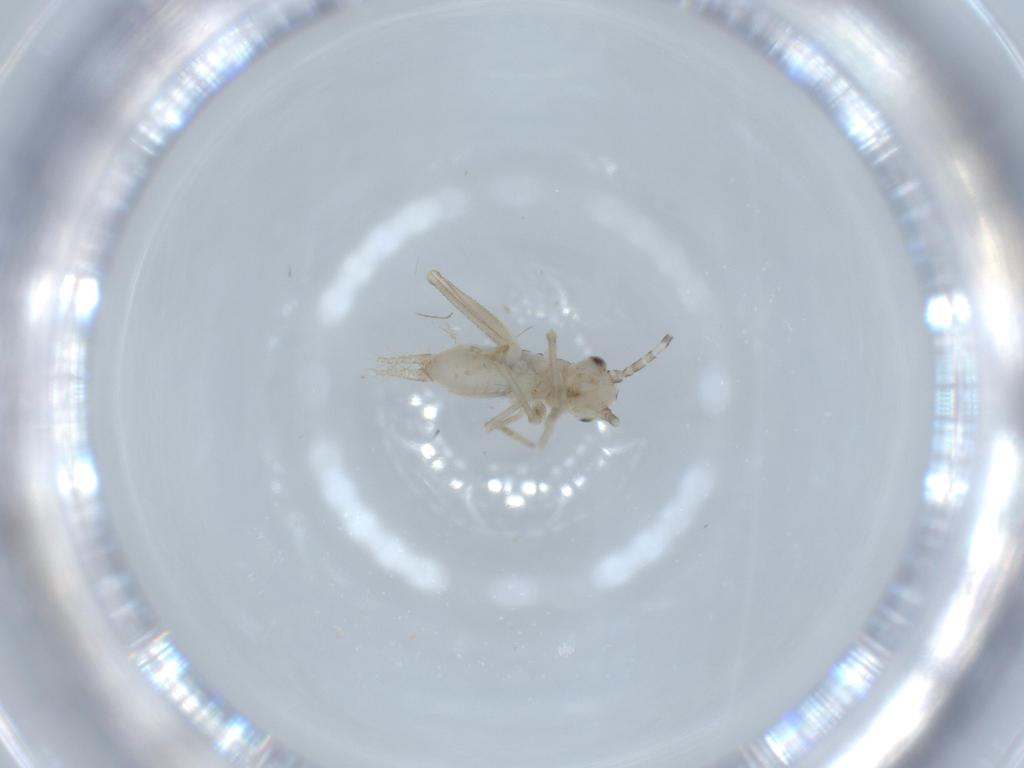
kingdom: Animalia
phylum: Arthropoda
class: Insecta
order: Orthoptera
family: Trigonidiidae
